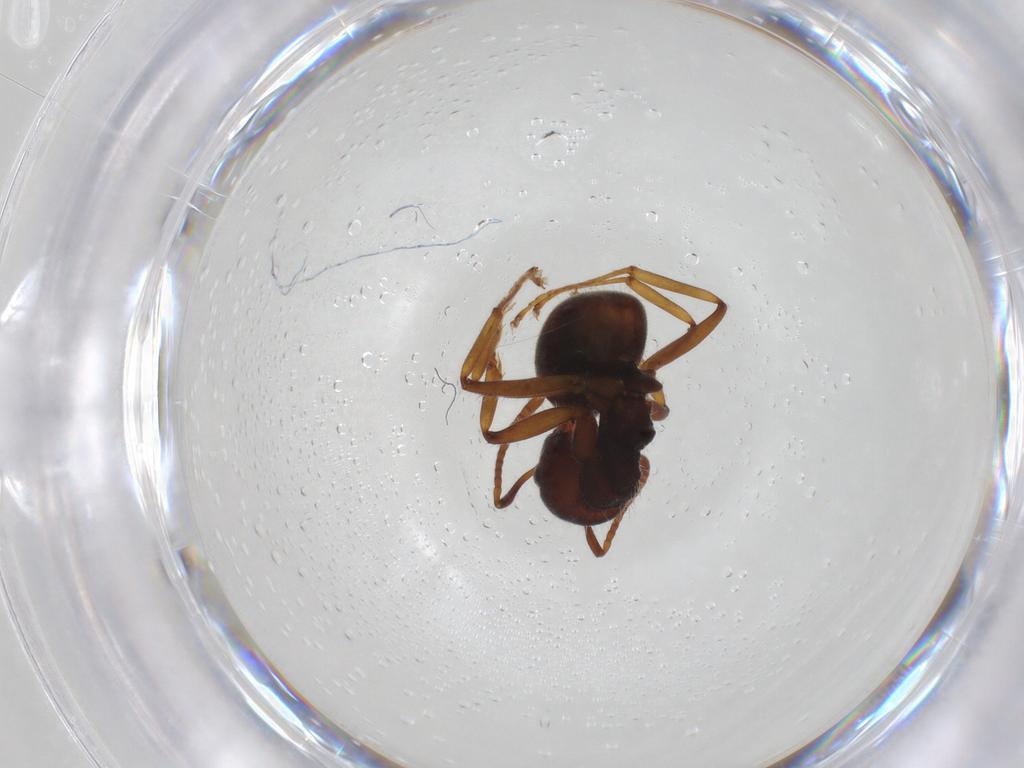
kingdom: Animalia
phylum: Arthropoda
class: Insecta
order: Hymenoptera
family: Formicidae
